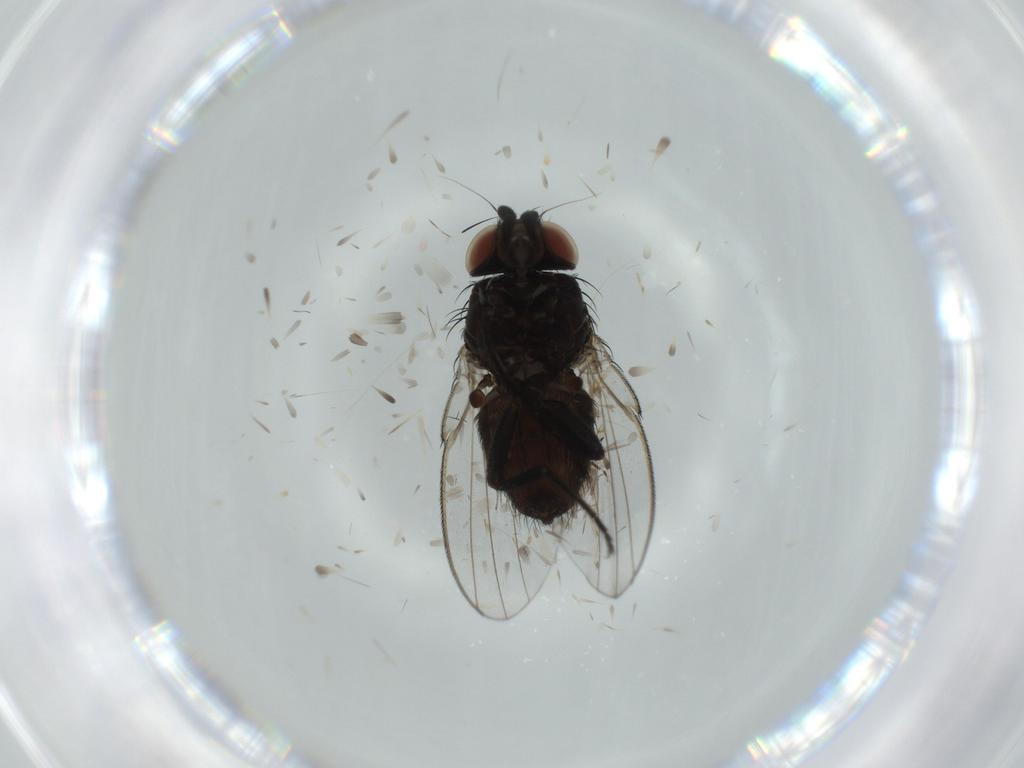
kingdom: Animalia
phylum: Arthropoda
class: Insecta
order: Diptera
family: Milichiidae
